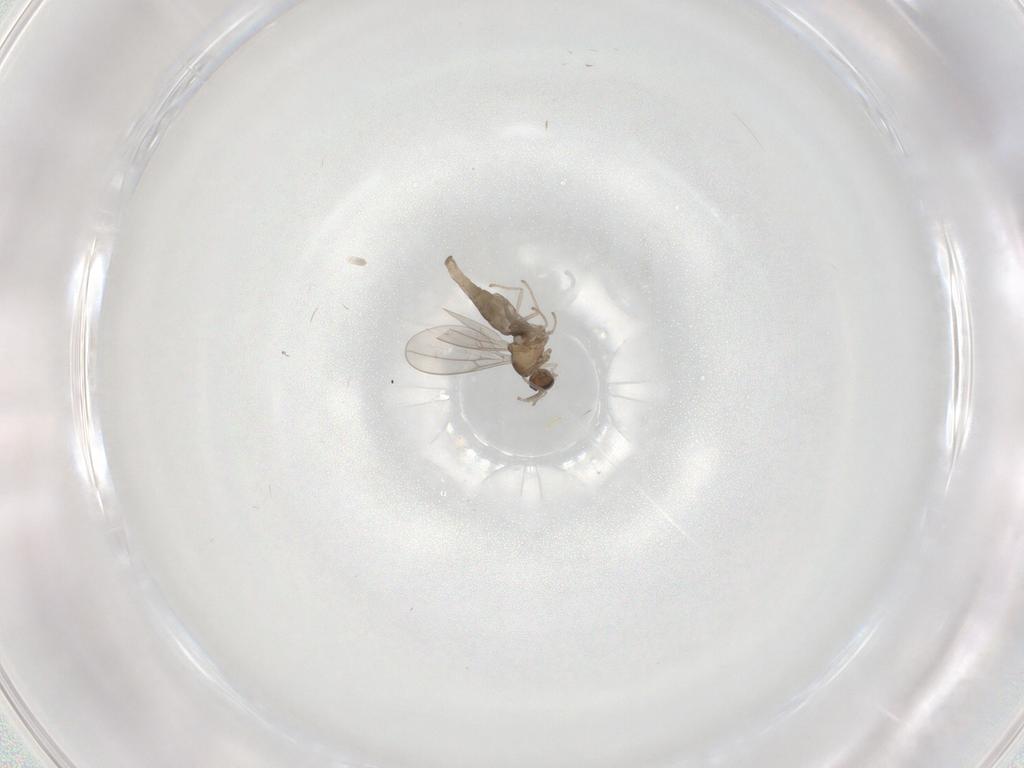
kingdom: Animalia
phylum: Arthropoda
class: Insecta
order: Diptera
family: Cecidomyiidae
